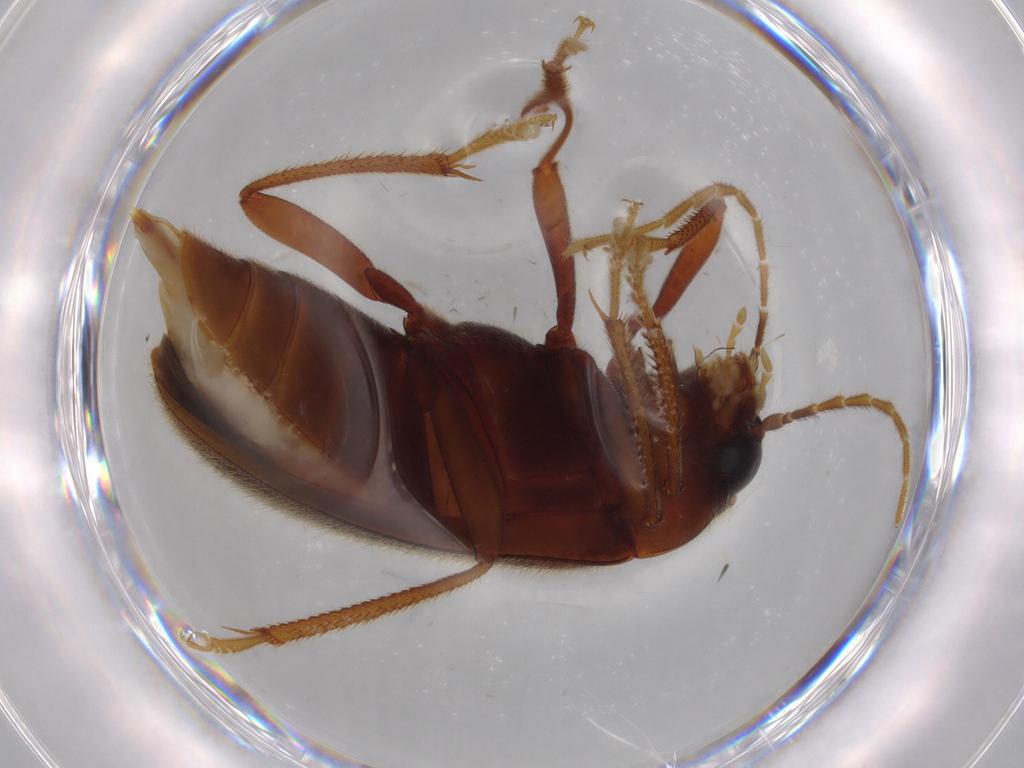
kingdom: Animalia
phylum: Arthropoda
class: Insecta
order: Coleoptera
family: Ptilodactylidae
